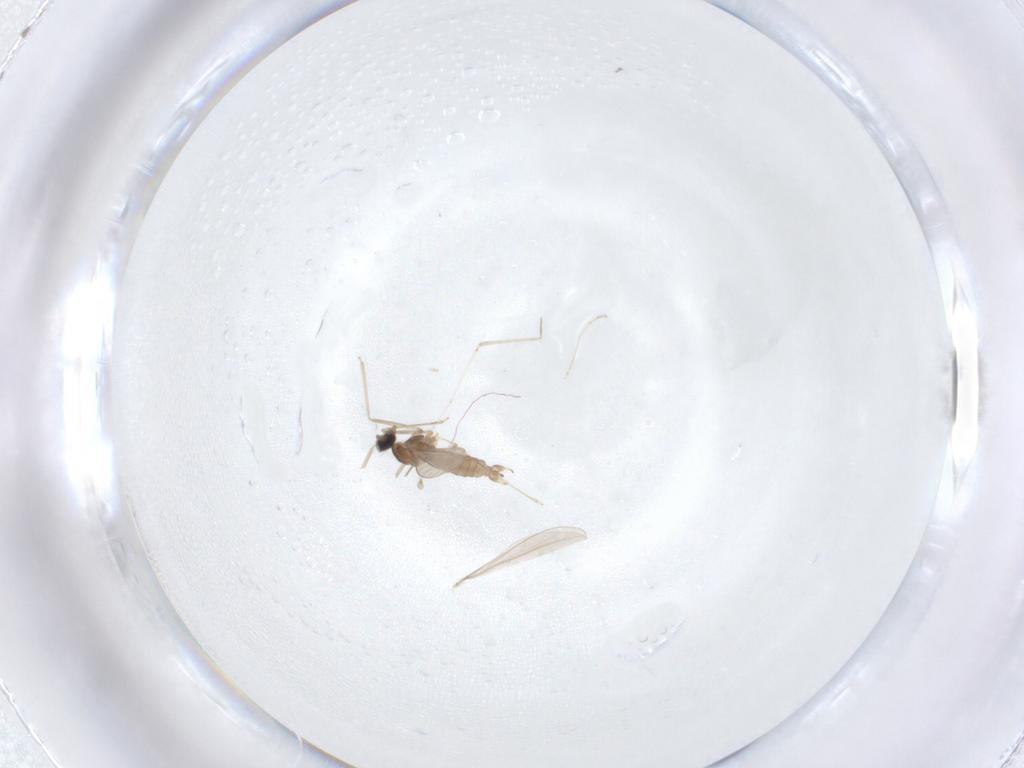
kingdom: Animalia
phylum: Arthropoda
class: Insecta
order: Diptera
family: Cecidomyiidae
